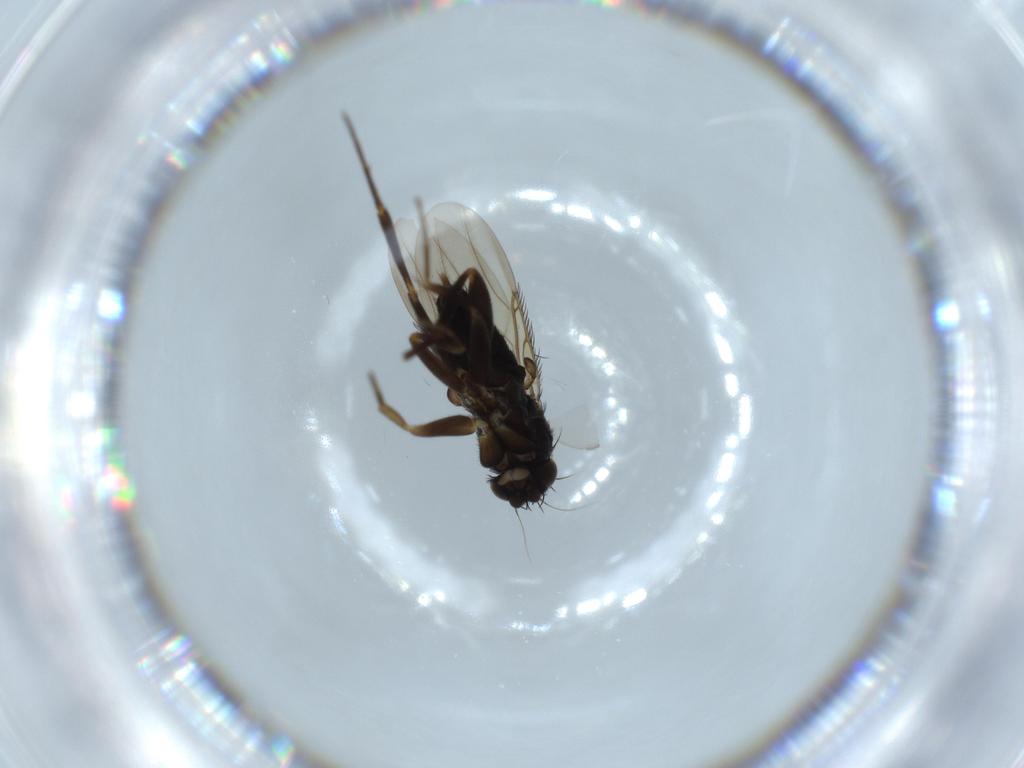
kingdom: Animalia
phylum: Arthropoda
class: Insecta
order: Diptera
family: Phoridae
